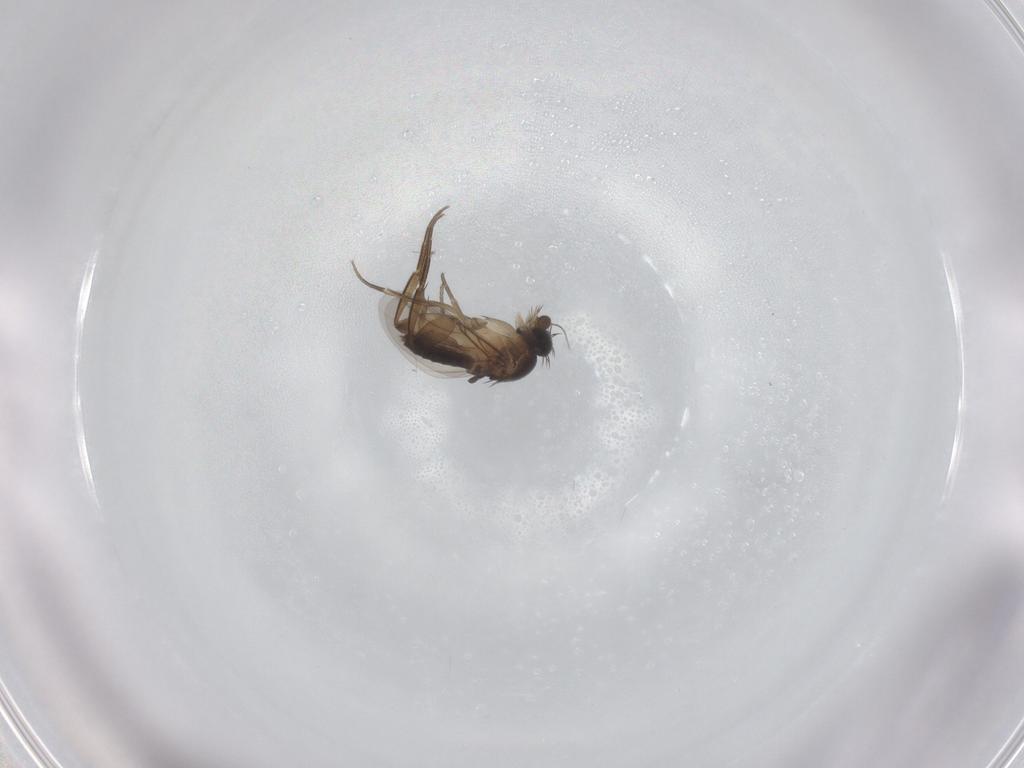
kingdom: Animalia
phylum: Arthropoda
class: Insecta
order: Diptera
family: Phoridae
